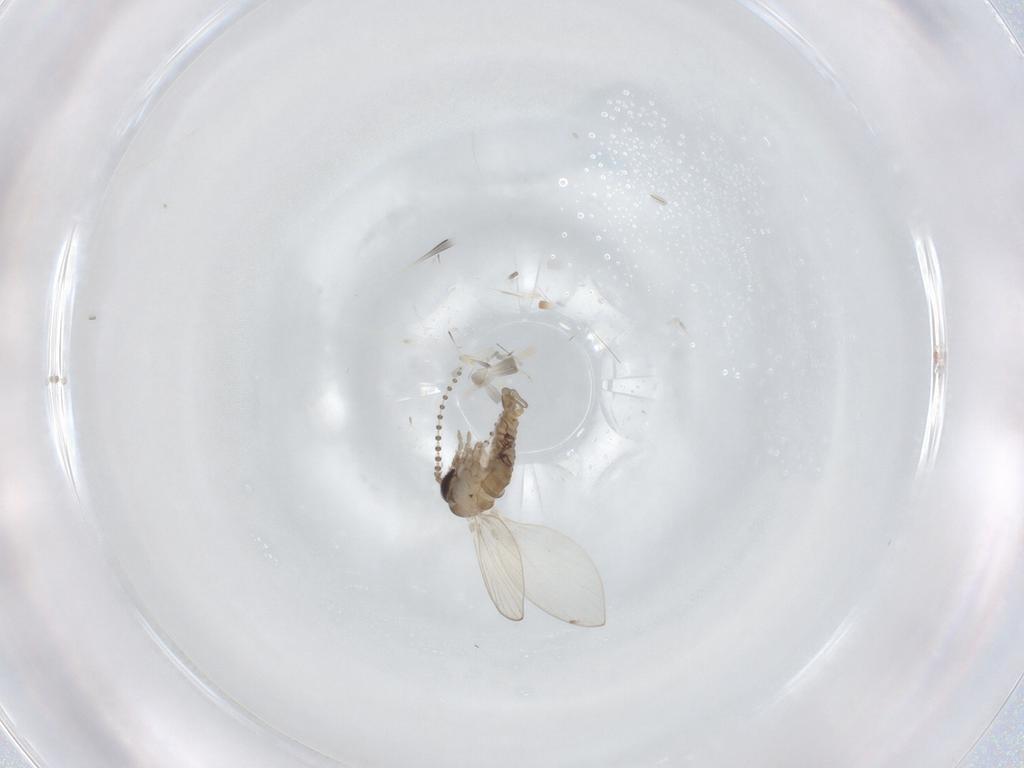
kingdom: Animalia
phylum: Arthropoda
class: Insecta
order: Diptera
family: Psychodidae
